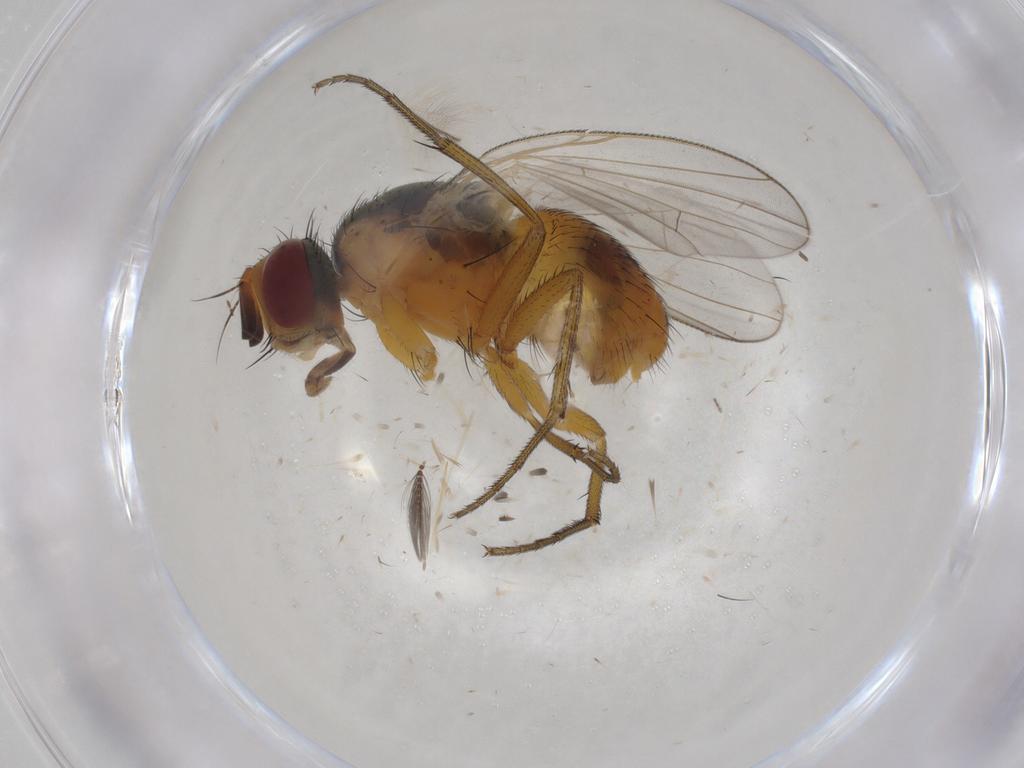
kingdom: Animalia
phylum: Arthropoda
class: Insecta
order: Diptera
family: Muscidae
